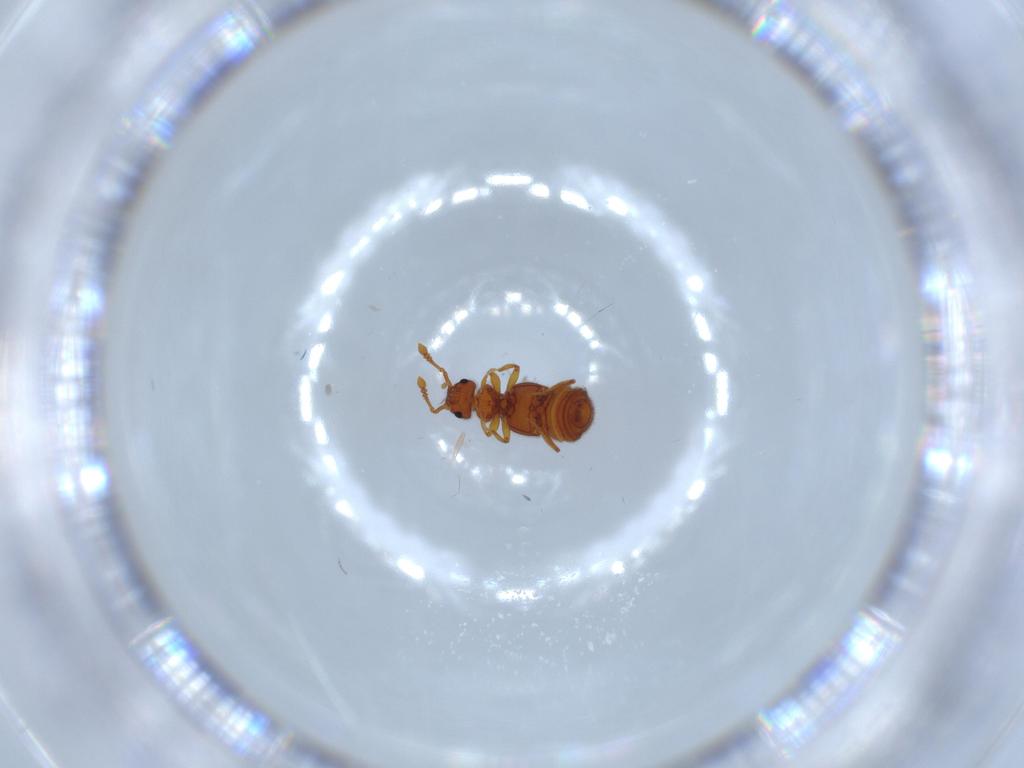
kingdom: Animalia
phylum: Arthropoda
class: Insecta
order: Coleoptera
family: Staphylinidae
